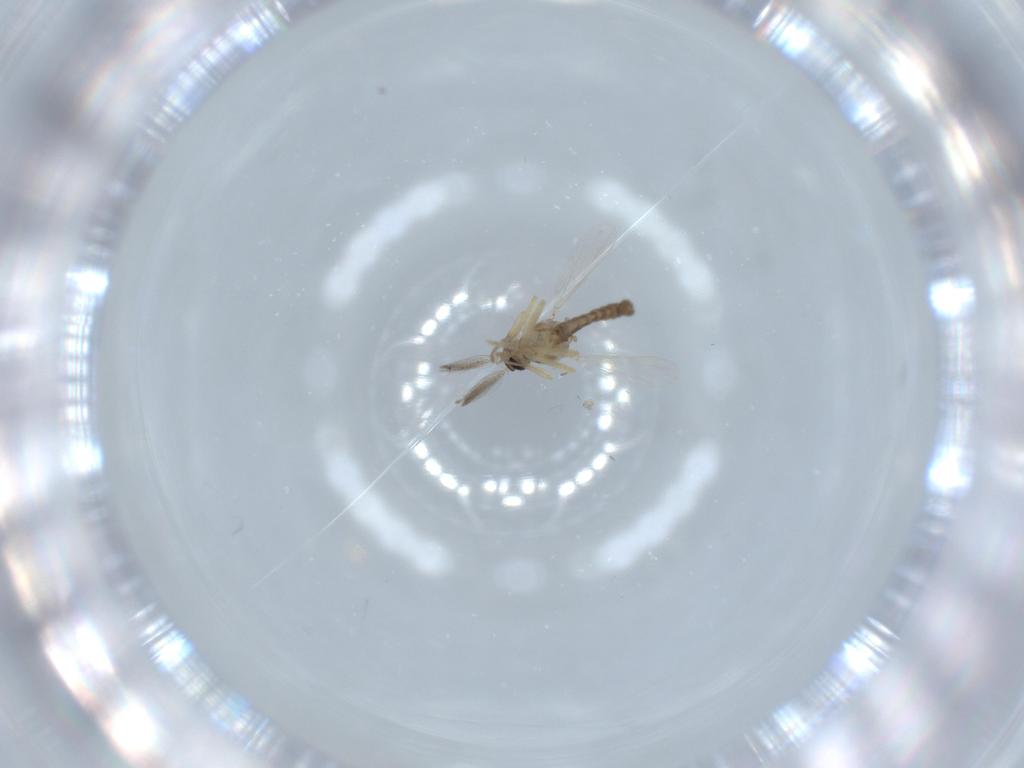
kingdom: Animalia
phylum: Arthropoda
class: Insecta
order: Diptera
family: Ceratopogonidae
